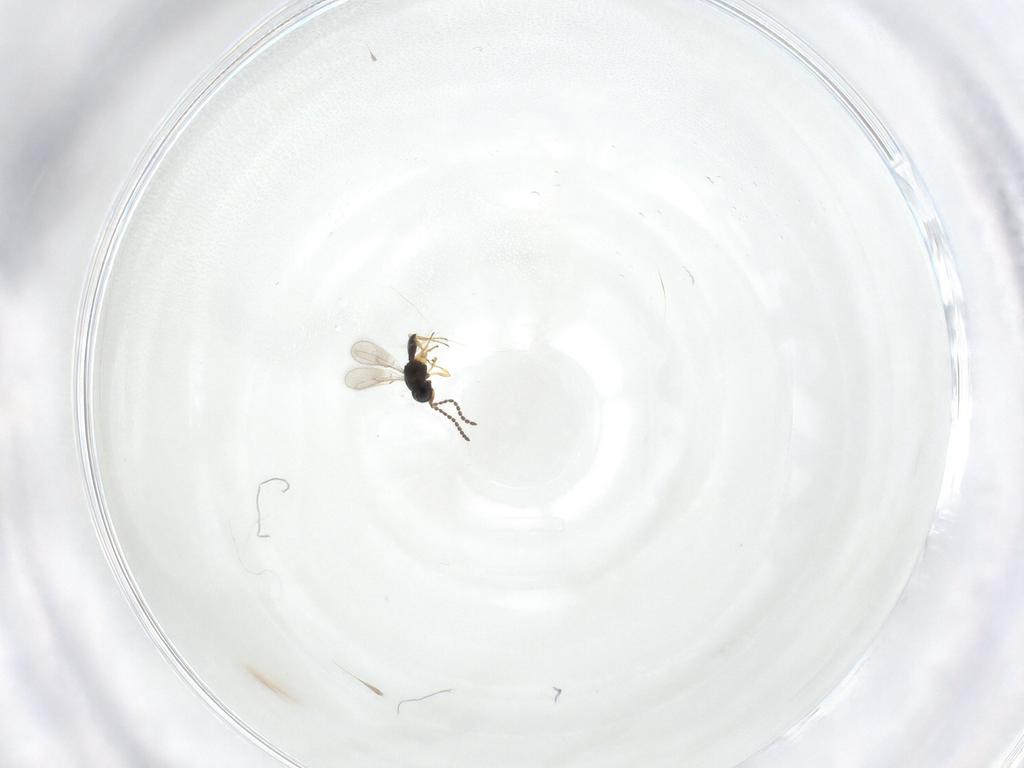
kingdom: Animalia
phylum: Arthropoda
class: Insecta
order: Hymenoptera
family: Scelionidae
